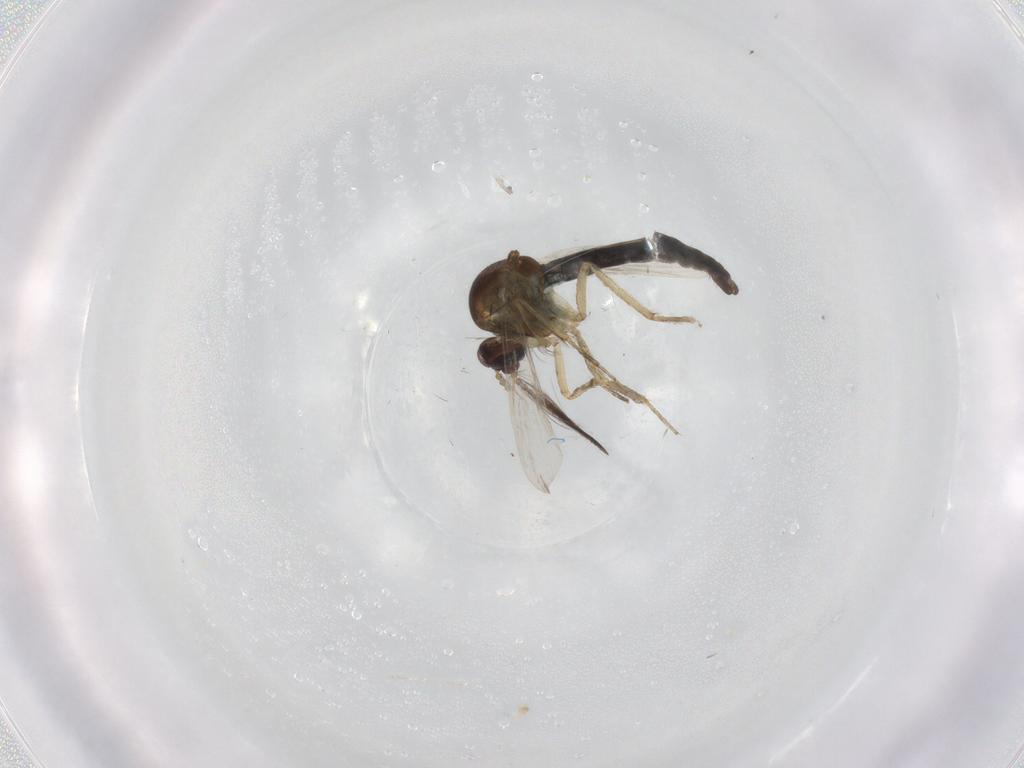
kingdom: Animalia
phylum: Arthropoda
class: Insecta
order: Diptera
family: Ceratopogonidae
